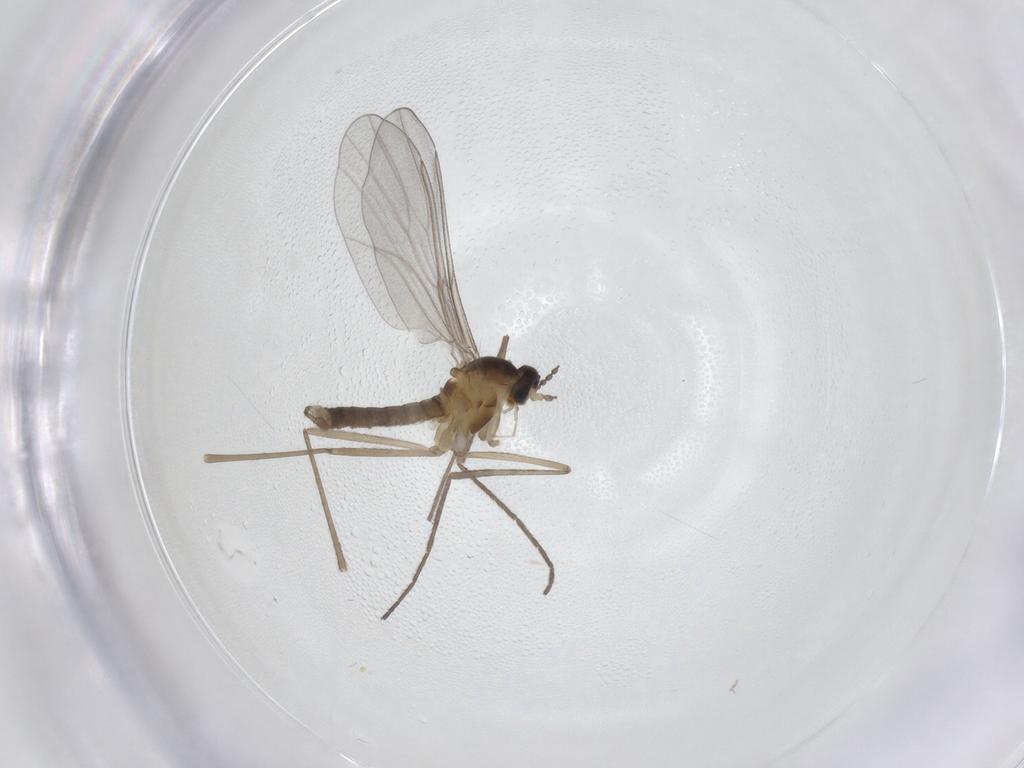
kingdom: Animalia
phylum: Arthropoda
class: Insecta
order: Diptera
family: Cecidomyiidae
